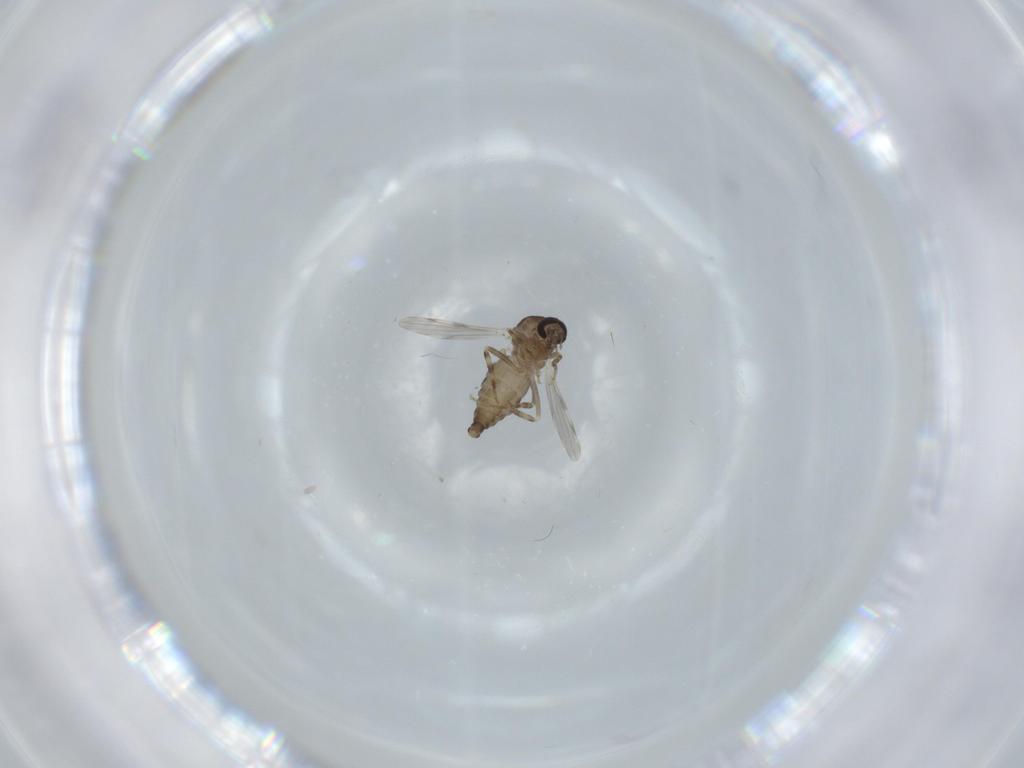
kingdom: Animalia
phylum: Arthropoda
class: Insecta
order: Diptera
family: Ceratopogonidae
